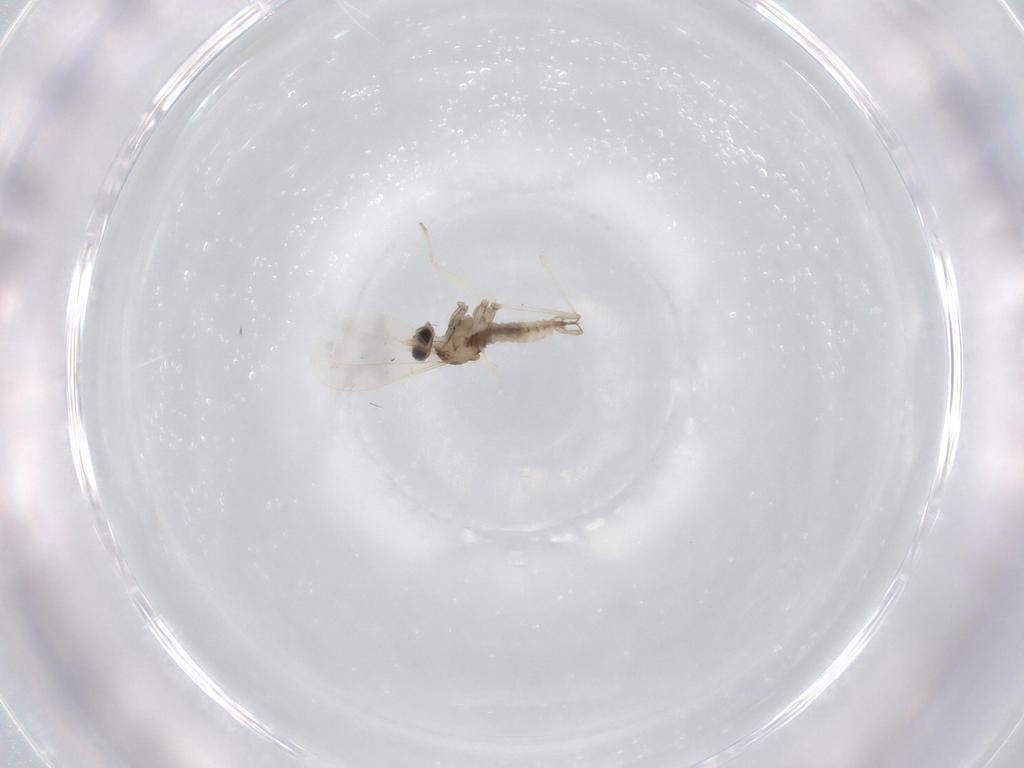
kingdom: Animalia
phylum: Arthropoda
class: Insecta
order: Diptera
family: Cecidomyiidae
